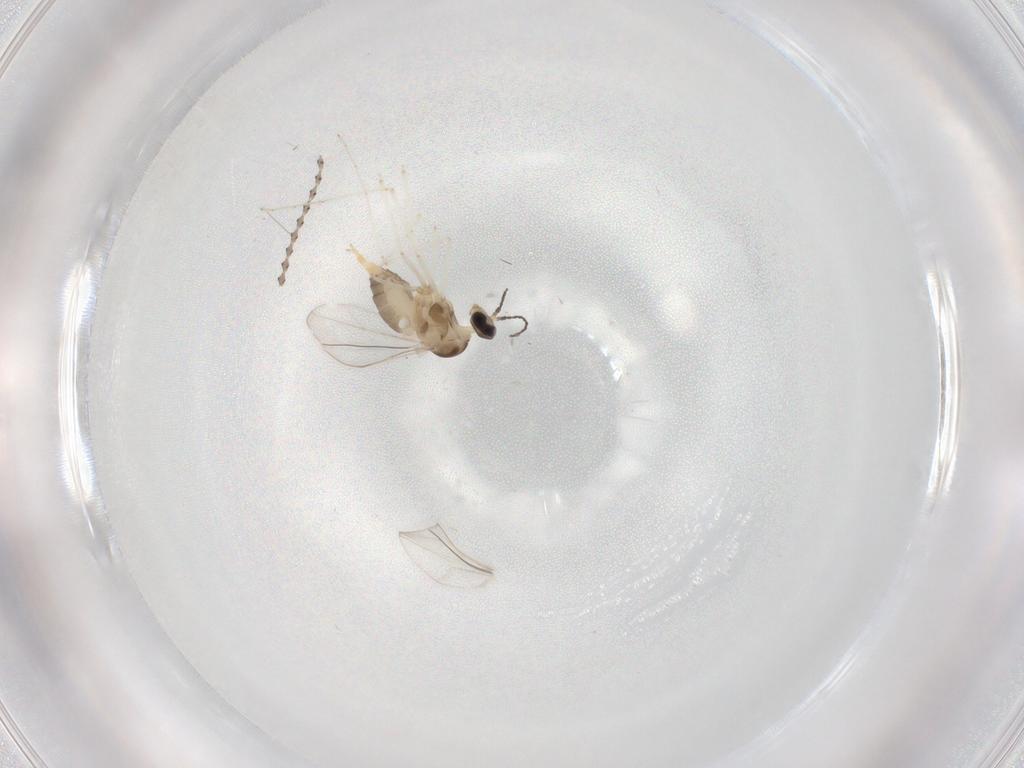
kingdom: Animalia
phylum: Arthropoda
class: Insecta
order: Diptera
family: Cecidomyiidae
